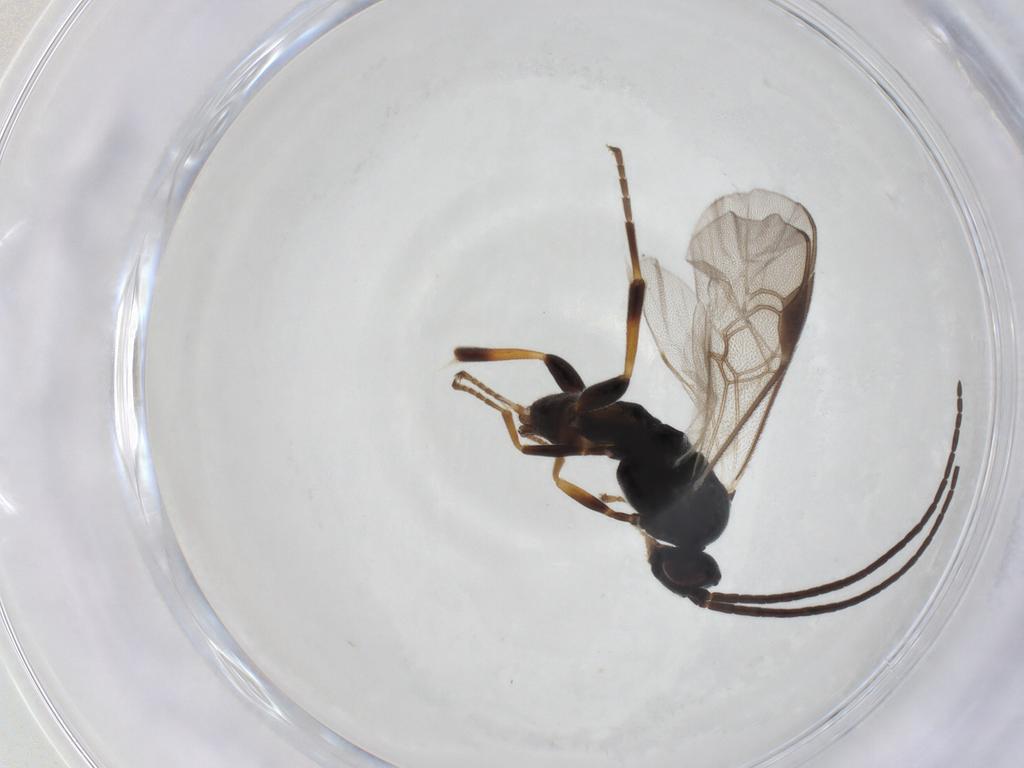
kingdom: Animalia
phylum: Arthropoda
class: Insecta
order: Hymenoptera
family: Braconidae
